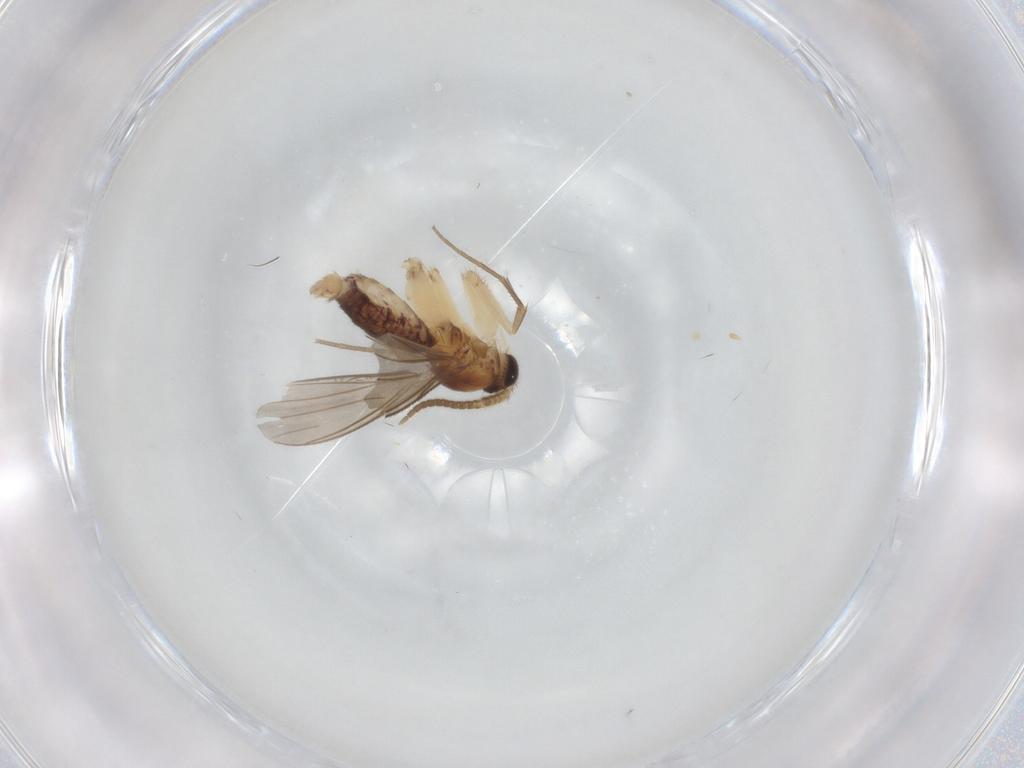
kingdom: Animalia
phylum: Arthropoda
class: Insecta
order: Diptera
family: Mycetophilidae
